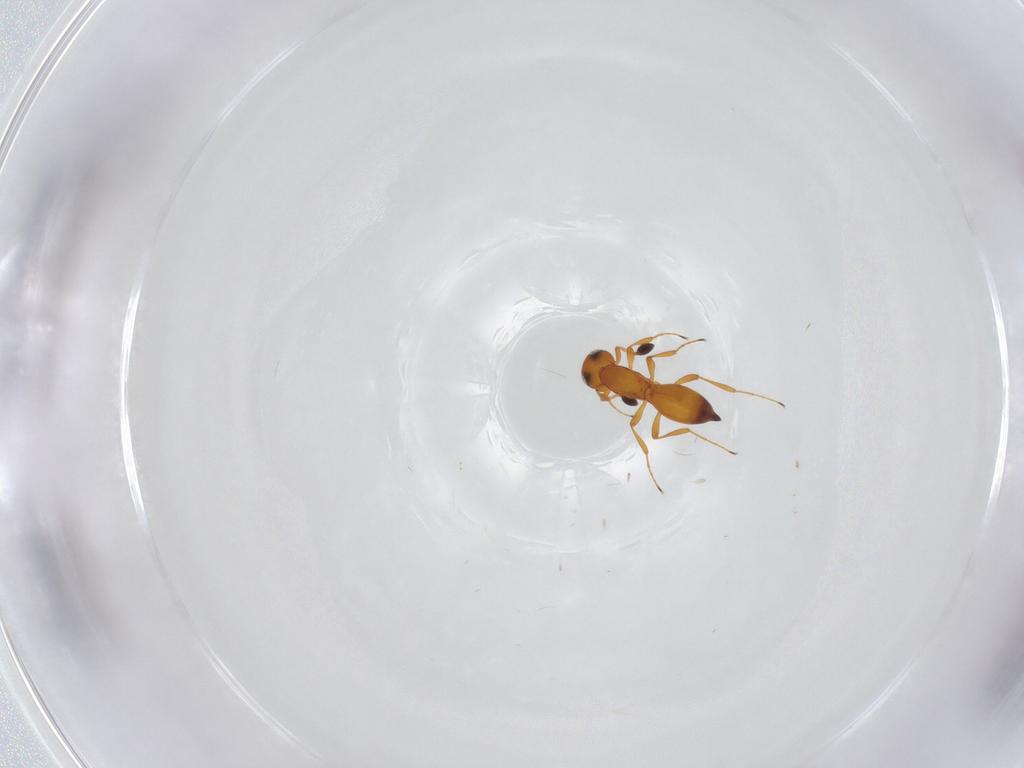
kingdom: Animalia
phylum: Arthropoda
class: Insecta
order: Hymenoptera
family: Platygastridae
